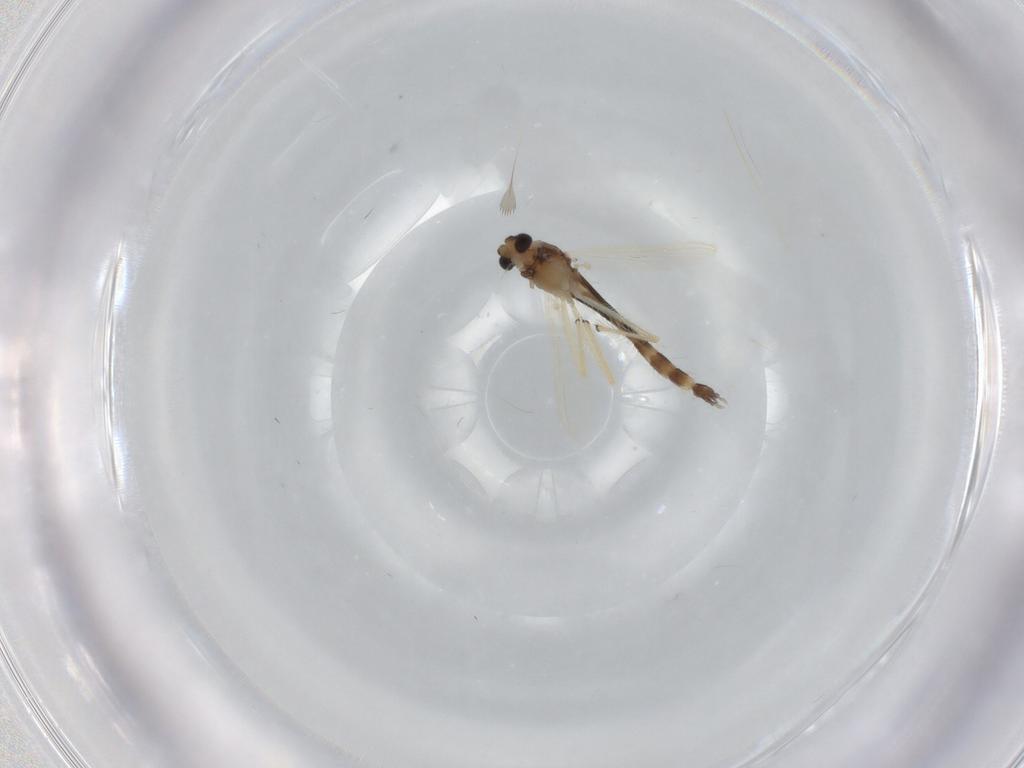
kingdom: Animalia
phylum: Arthropoda
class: Insecta
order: Diptera
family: Chironomidae
